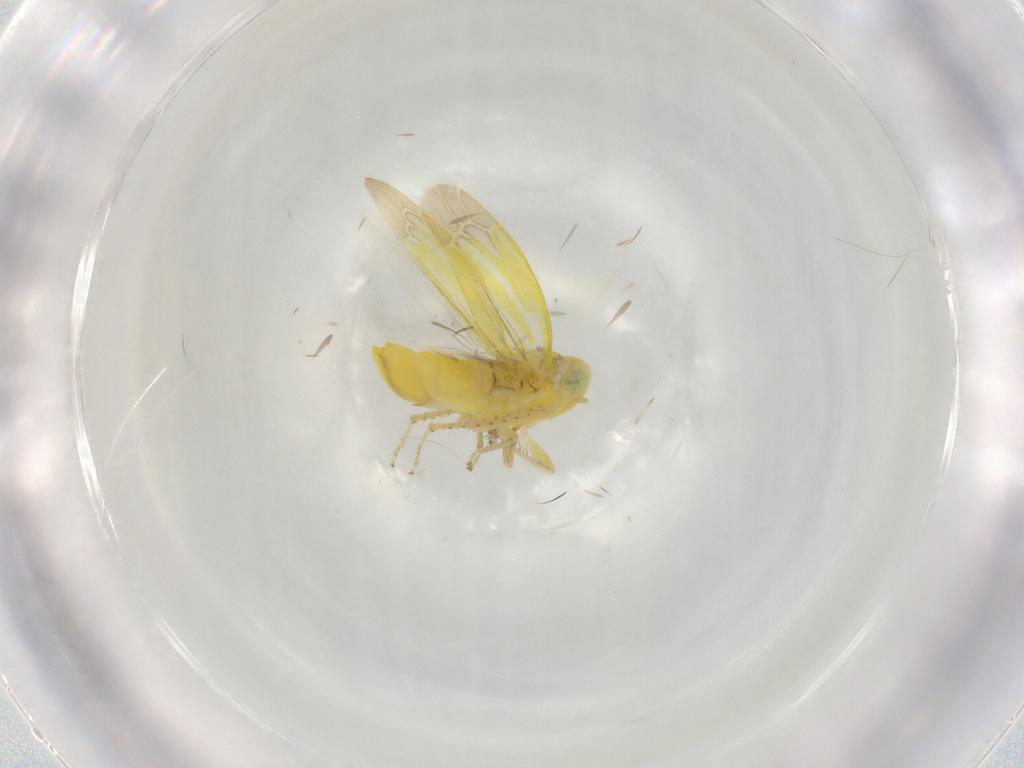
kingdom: Animalia
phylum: Arthropoda
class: Insecta
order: Hemiptera
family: Cicadellidae
